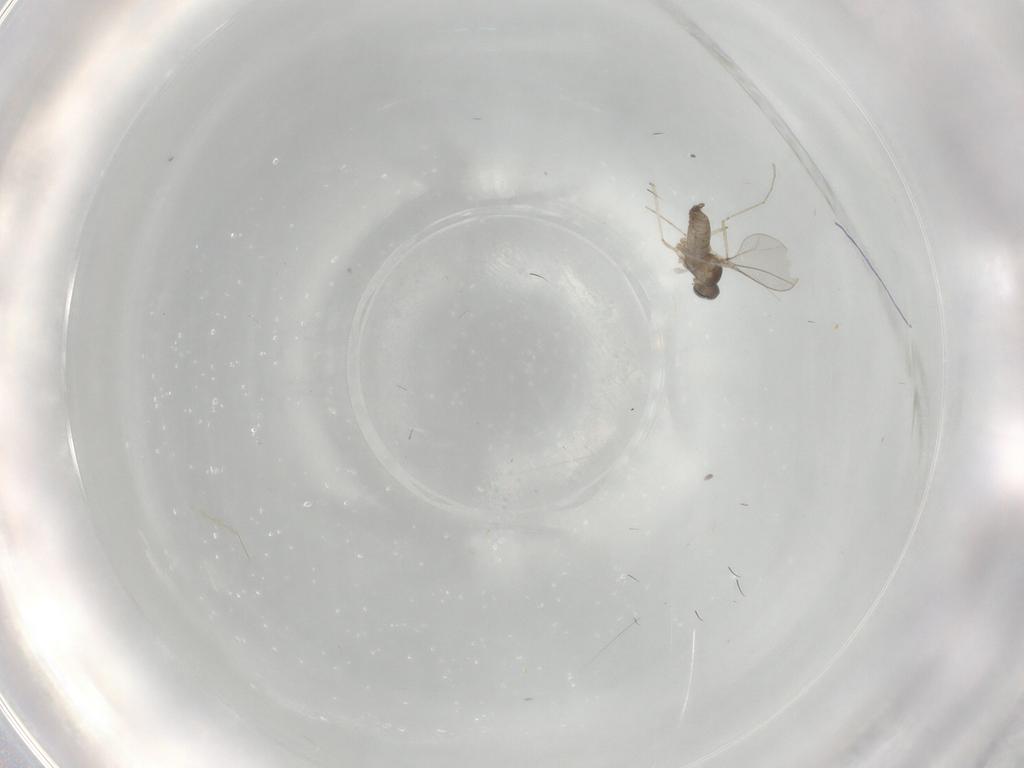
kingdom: Animalia
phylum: Arthropoda
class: Insecta
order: Diptera
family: Cecidomyiidae
